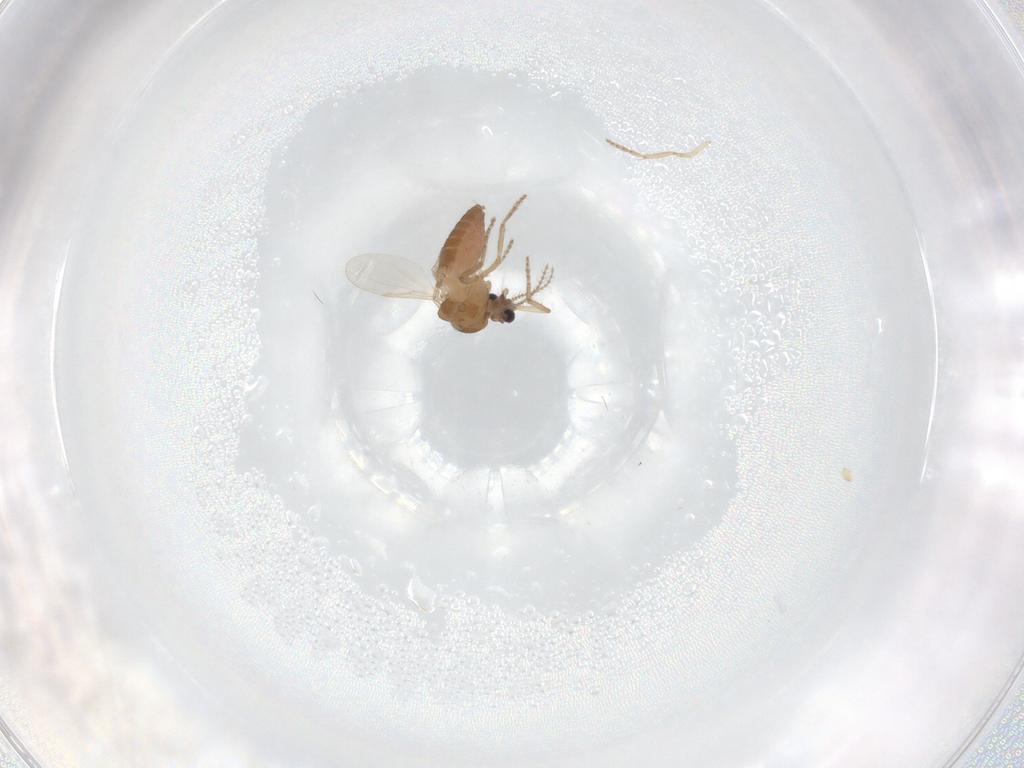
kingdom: Animalia
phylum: Arthropoda
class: Insecta
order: Diptera
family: Ceratopogonidae
